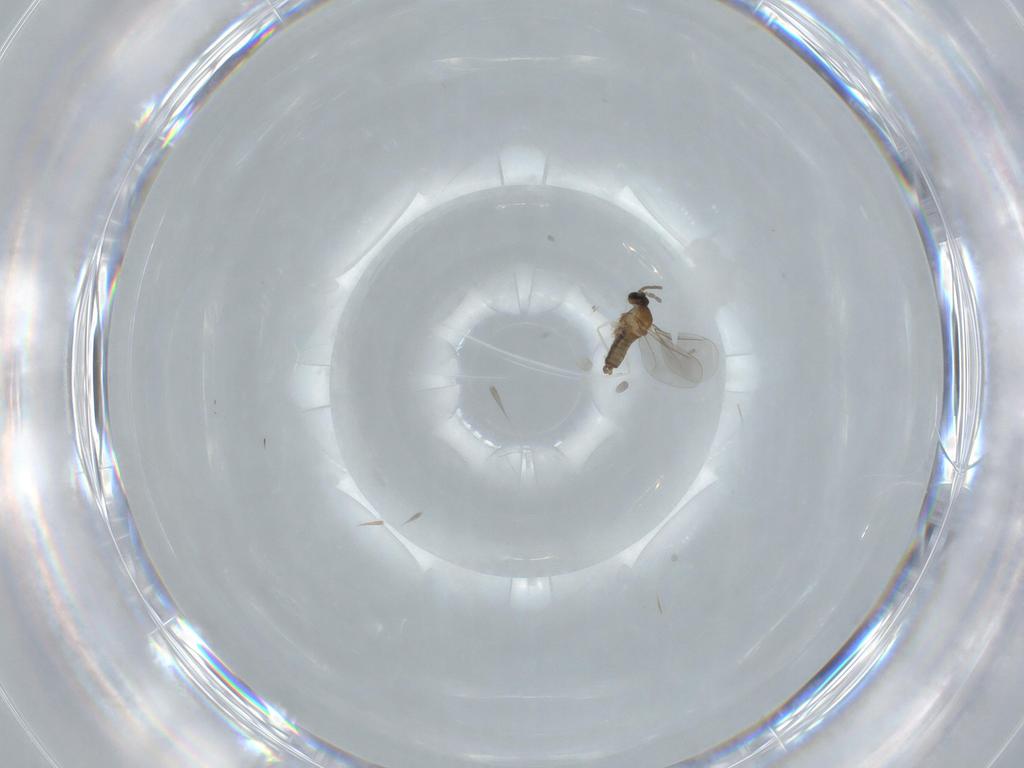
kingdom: Animalia
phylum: Arthropoda
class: Insecta
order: Diptera
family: Cecidomyiidae
